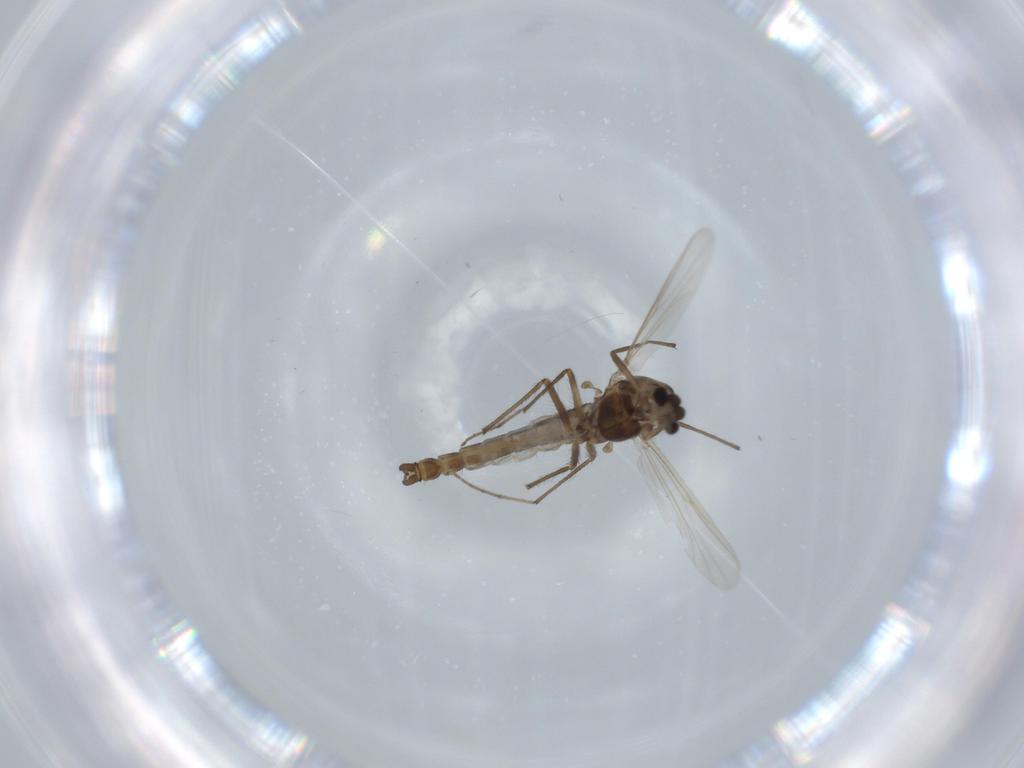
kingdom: Animalia
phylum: Arthropoda
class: Insecta
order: Diptera
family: Chironomidae
